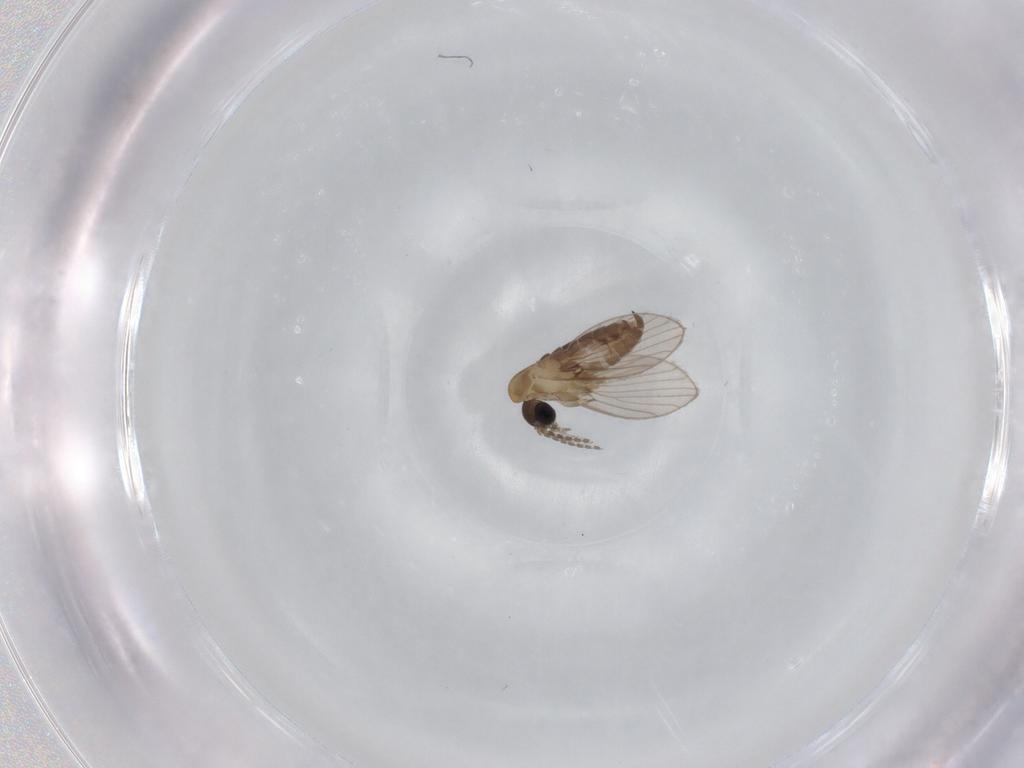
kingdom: Animalia
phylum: Arthropoda
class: Insecta
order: Diptera
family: Psychodidae
